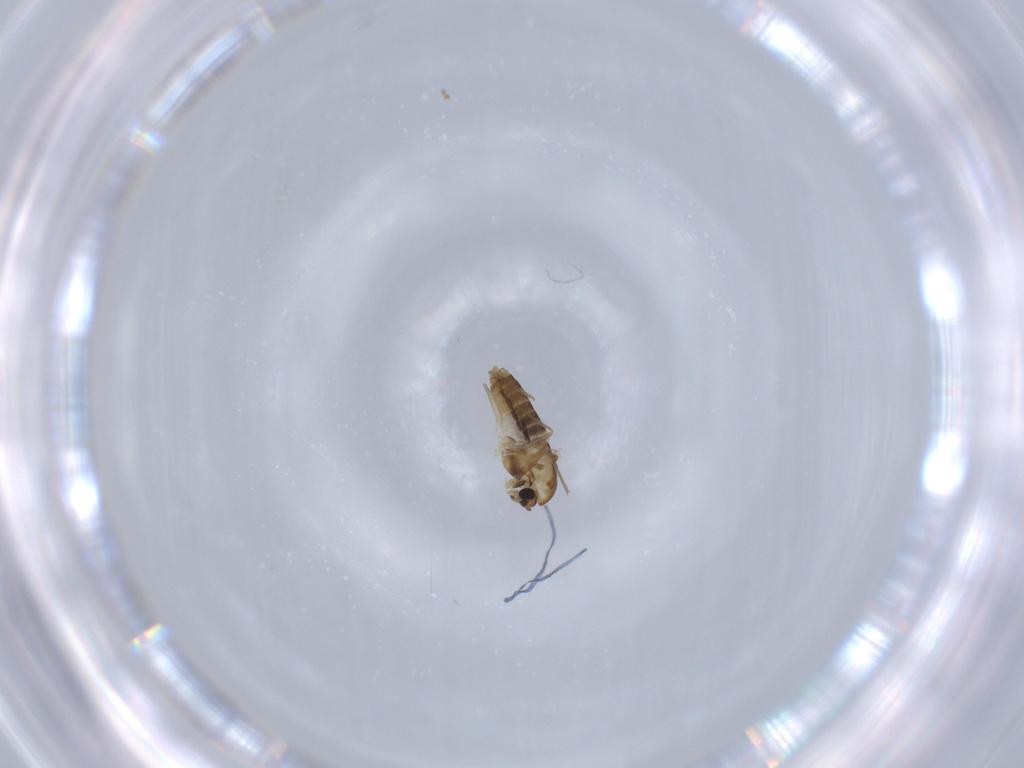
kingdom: Animalia
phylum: Arthropoda
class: Insecta
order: Diptera
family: Chironomidae
